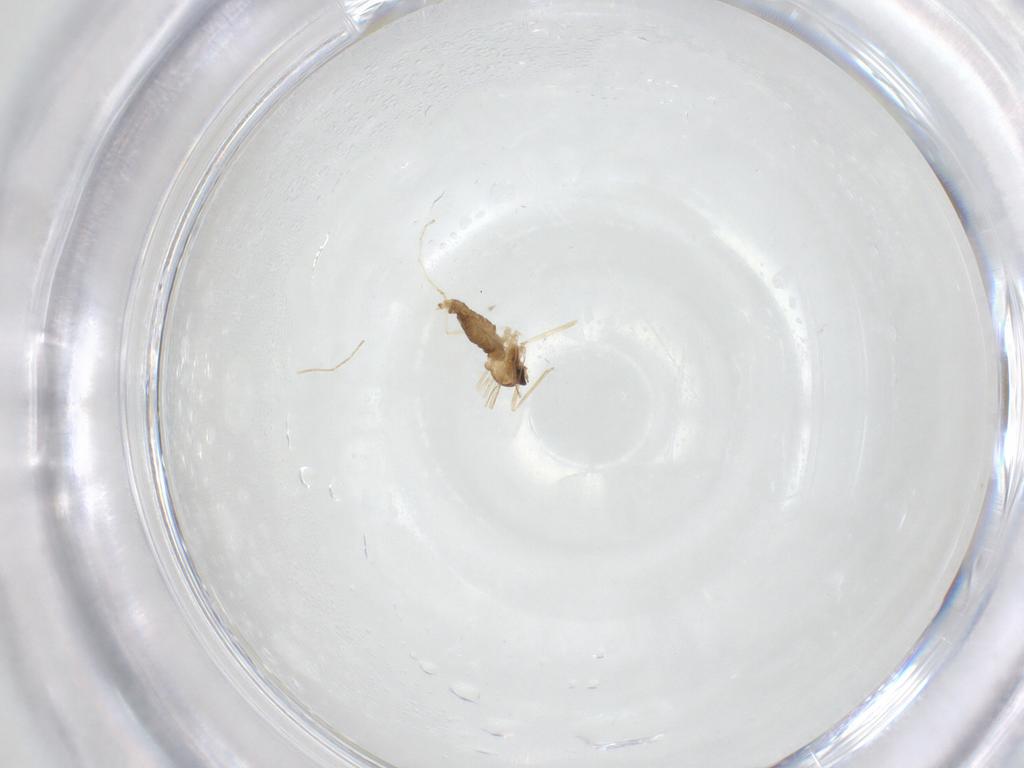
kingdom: Animalia
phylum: Arthropoda
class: Insecta
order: Diptera
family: Cecidomyiidae
